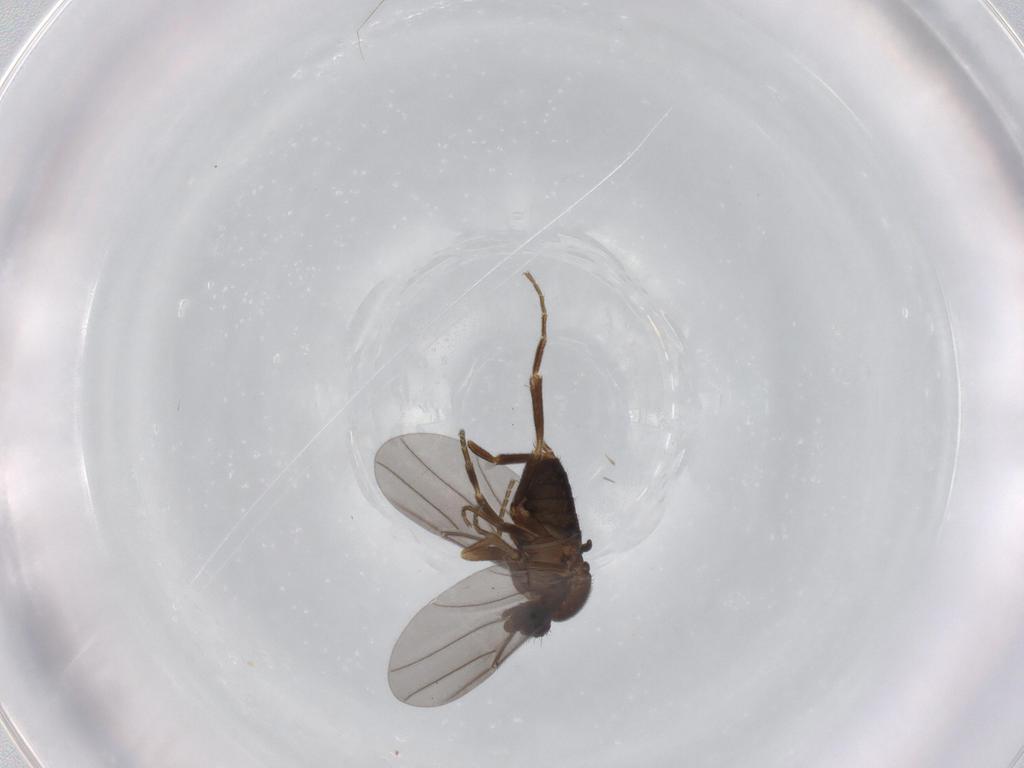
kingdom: Animalia
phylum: Arthropoda
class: Insecta
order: Diptera
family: Phoridae
